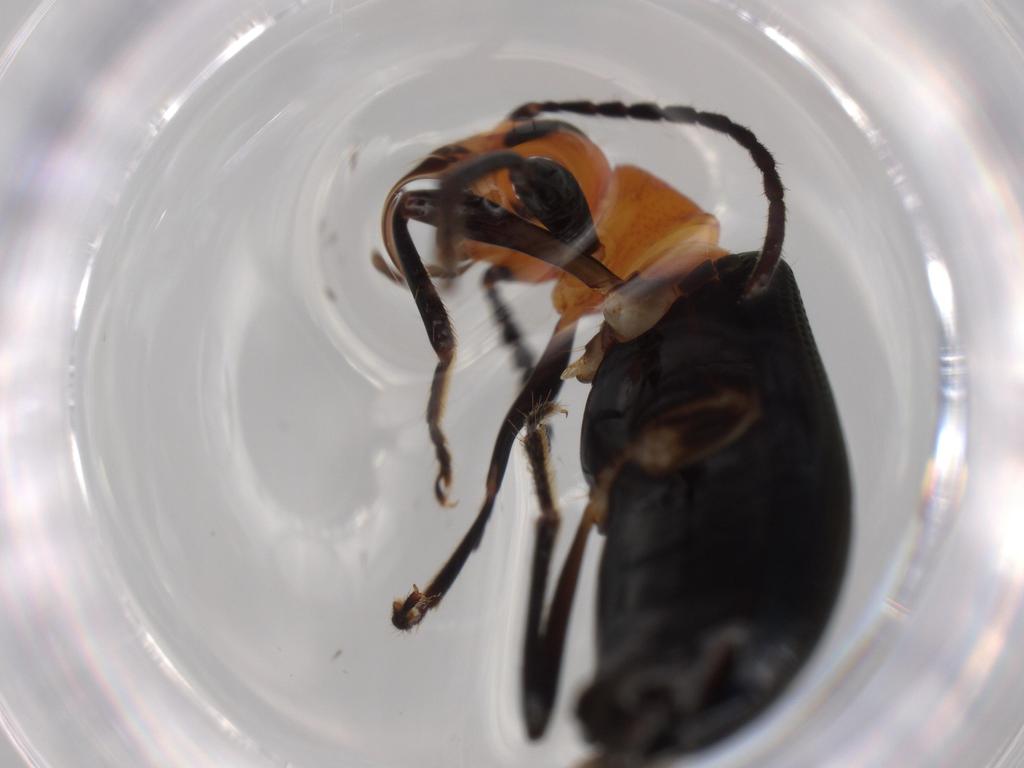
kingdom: Animalia
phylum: Arthropoda
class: Insecta
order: Coleoptera
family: Tenebrionidae
